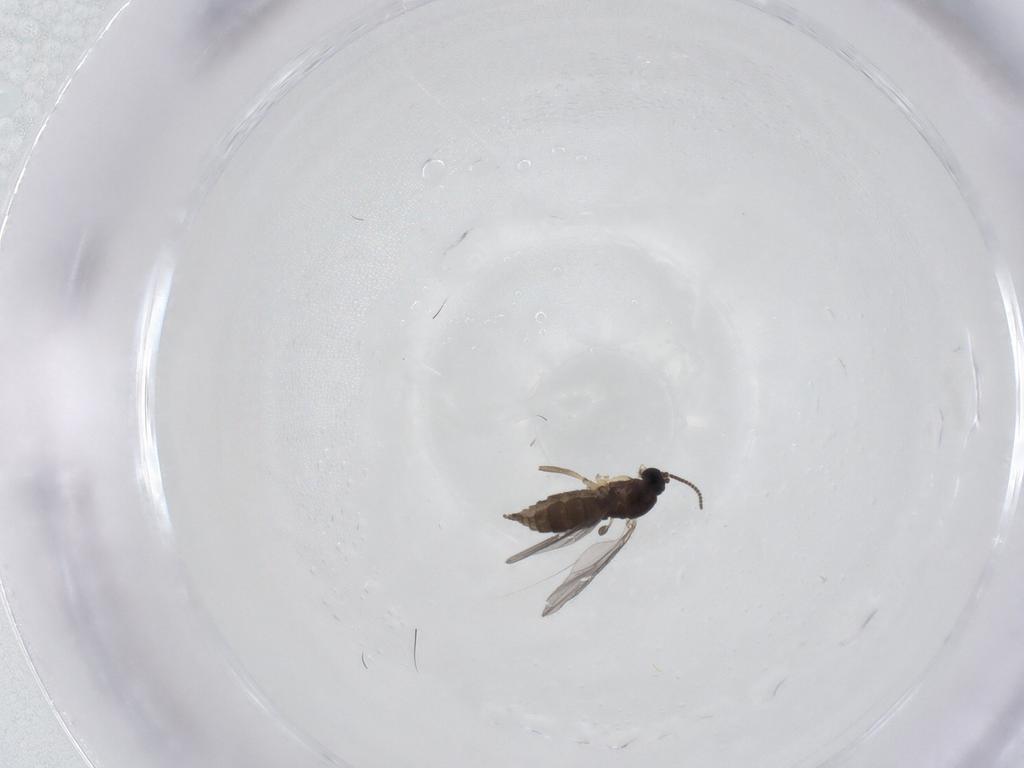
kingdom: Animalia
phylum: Arthropoda
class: Insecta
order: Diptera
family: Sciaridae
